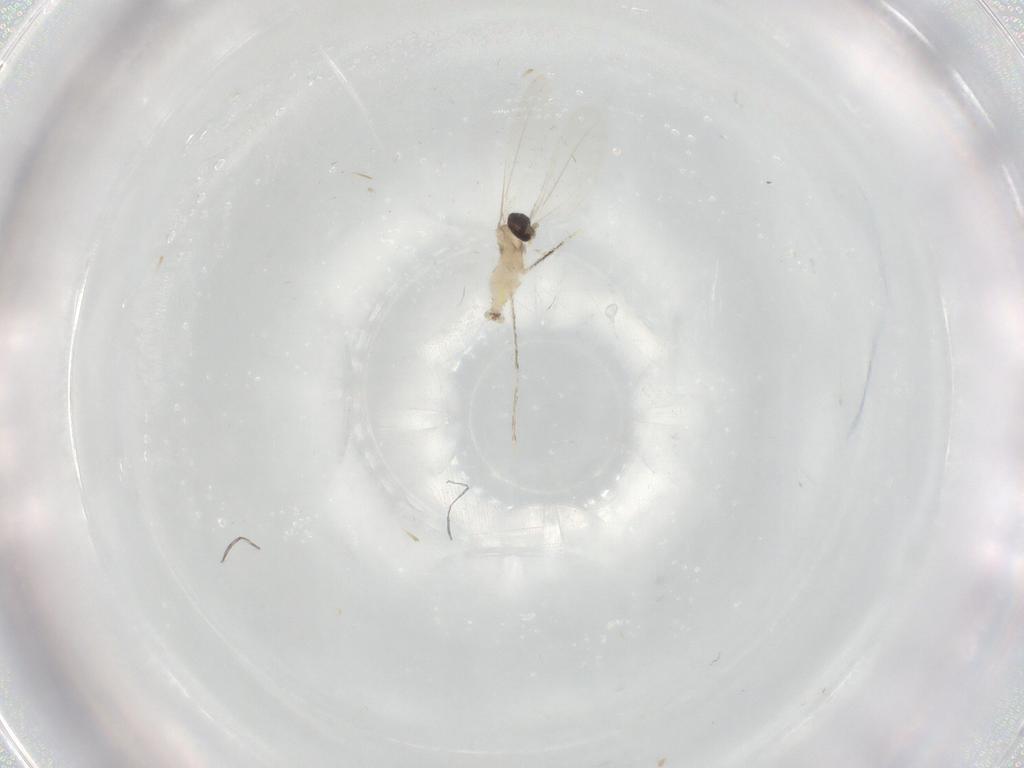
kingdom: Animalia
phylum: Arthropoda
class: Insecta
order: Diptera
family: Sciaridae
